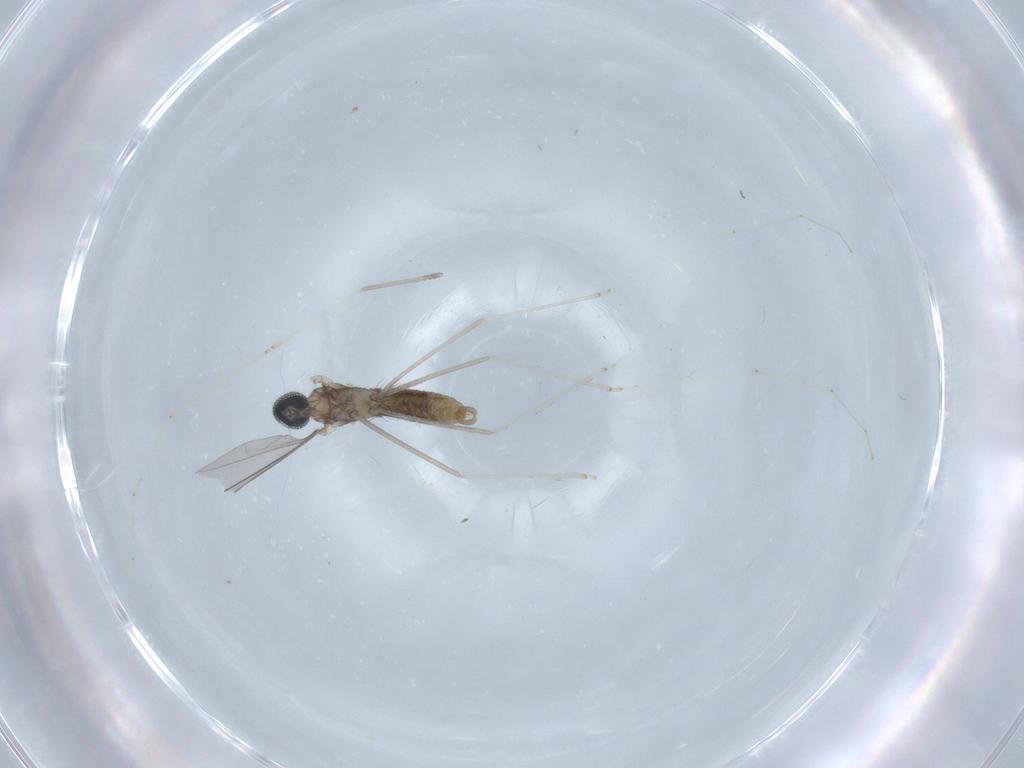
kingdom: Animalia
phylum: Arthropoda
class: Insecta
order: Diptera
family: Cecidomyiidae
